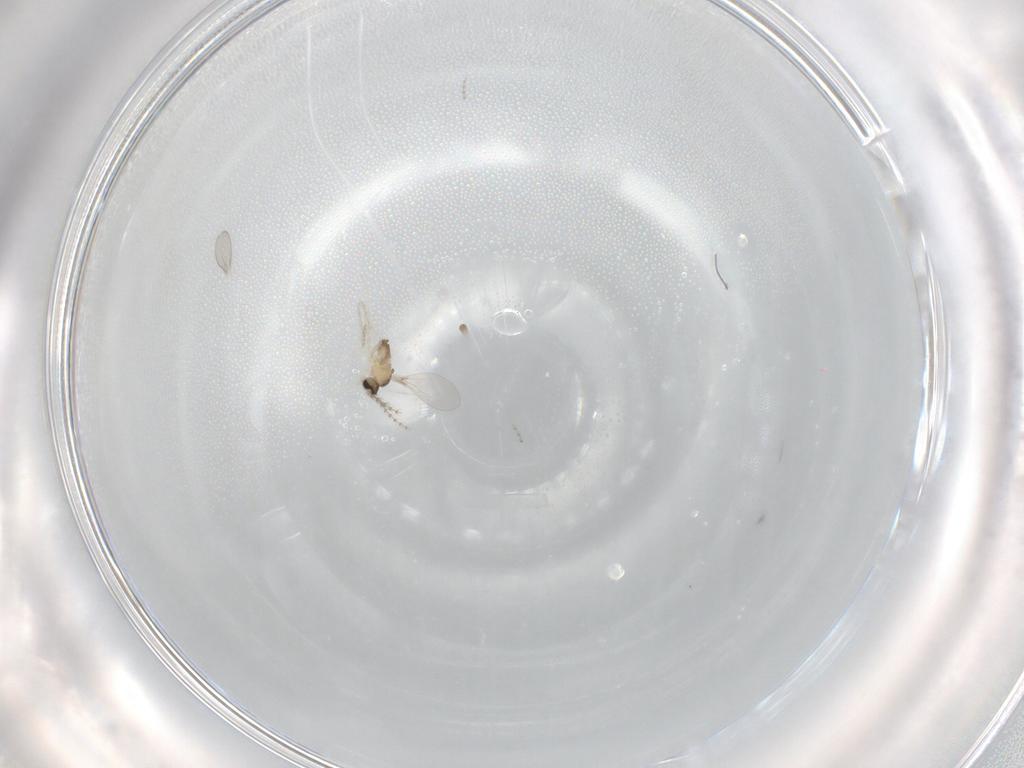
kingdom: Animalia
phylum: Arthropoda
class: Insecta
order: Diptera
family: Cecidomyiidae
